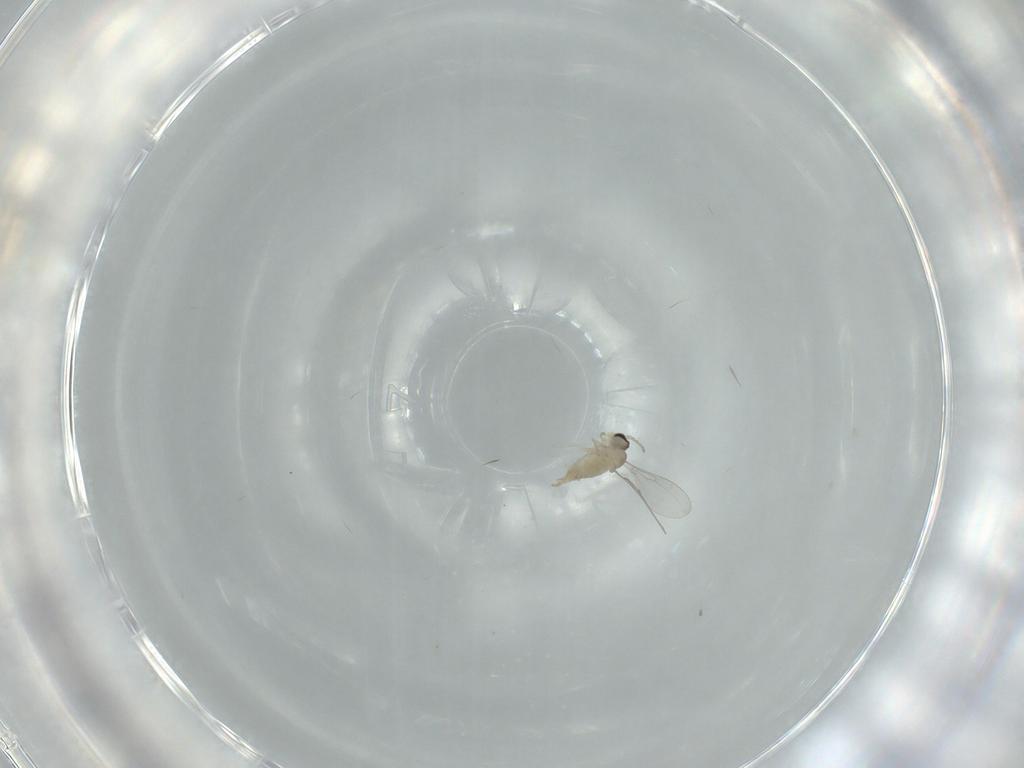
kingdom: Animalia
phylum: Arthropoda
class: Insecta
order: Diptera
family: Cecidomyiidae
